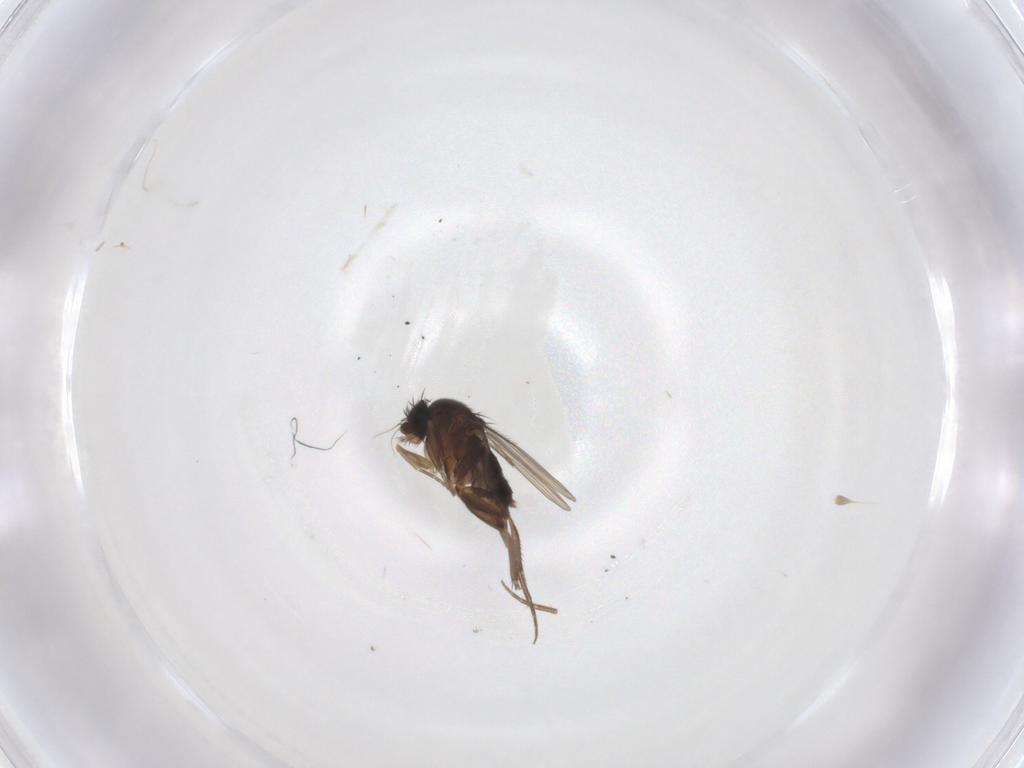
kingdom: Animalia
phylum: Arthropoda
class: Insecta
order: Diptera
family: Phoridae
